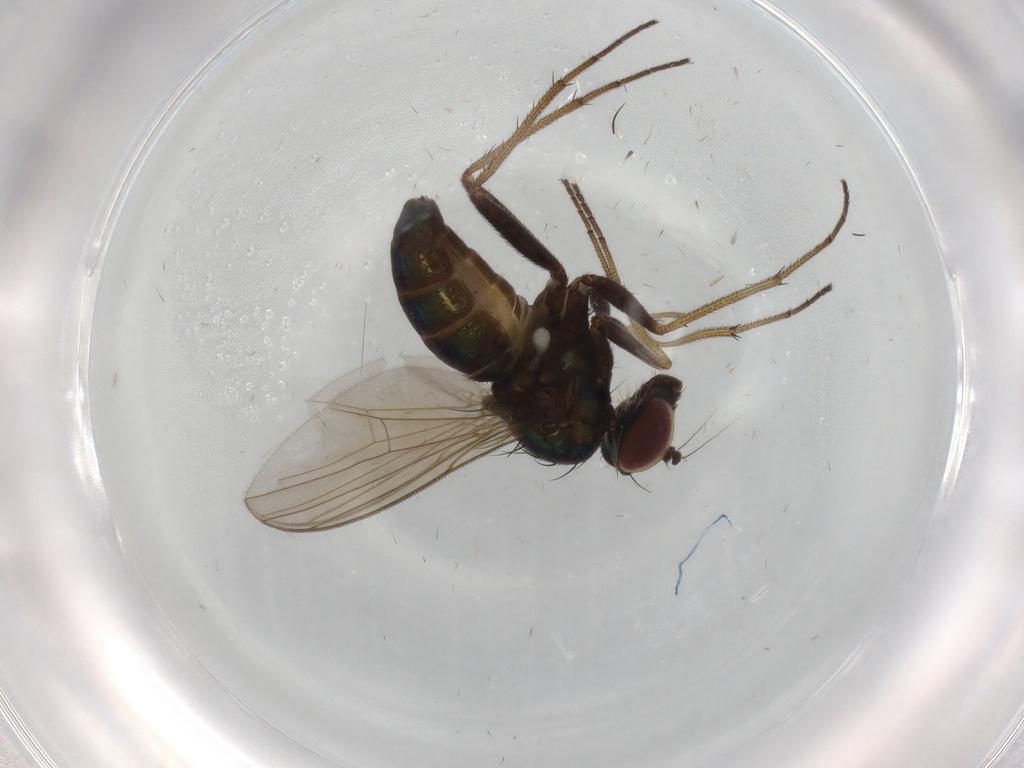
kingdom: Animalia
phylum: Arthropoda
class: Insecta
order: Diptera
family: Dolichopodidae
